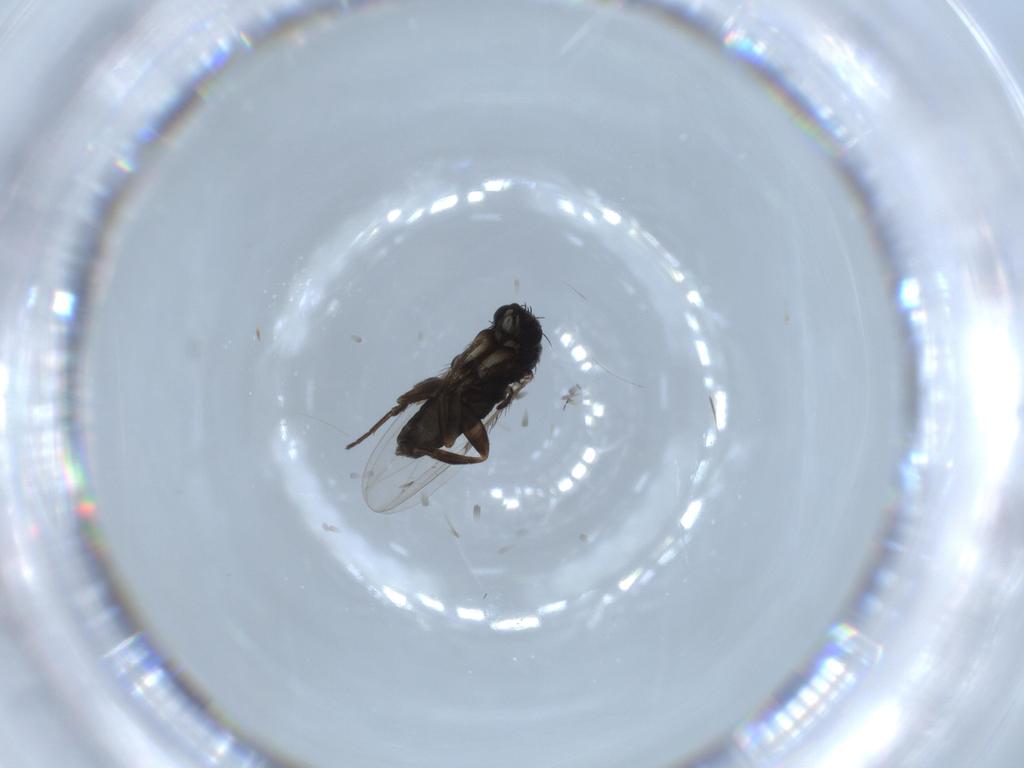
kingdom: Animalia
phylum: Arthropoda
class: Insecta
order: Diptera
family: Phoridae
